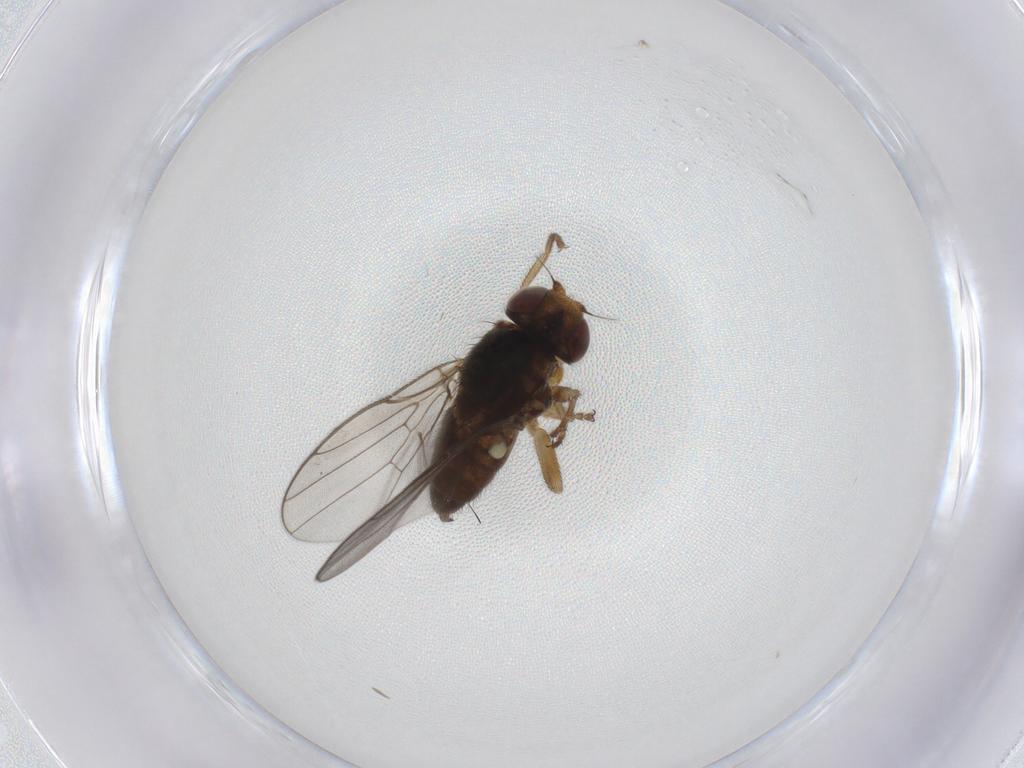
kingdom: Animalia
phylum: Arthropoda
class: Insecta
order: Diptera
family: Chloropidae
